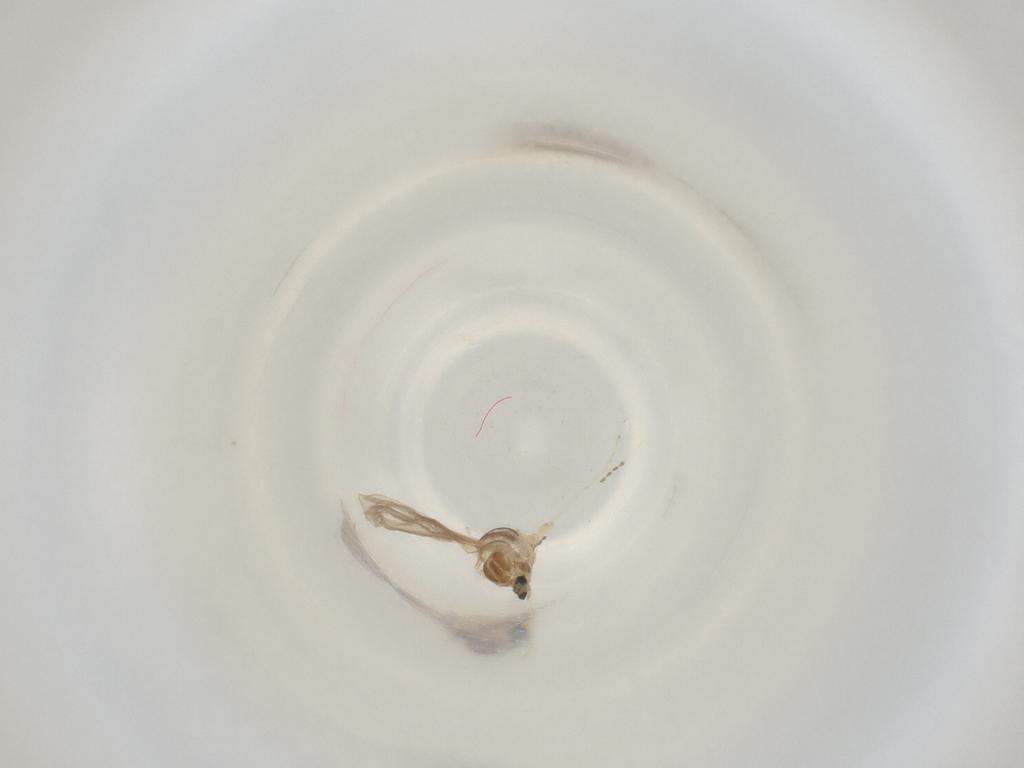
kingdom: Animalia
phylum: Arthropoda
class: Insecta
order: Diptera
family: Cecidomyiidae
